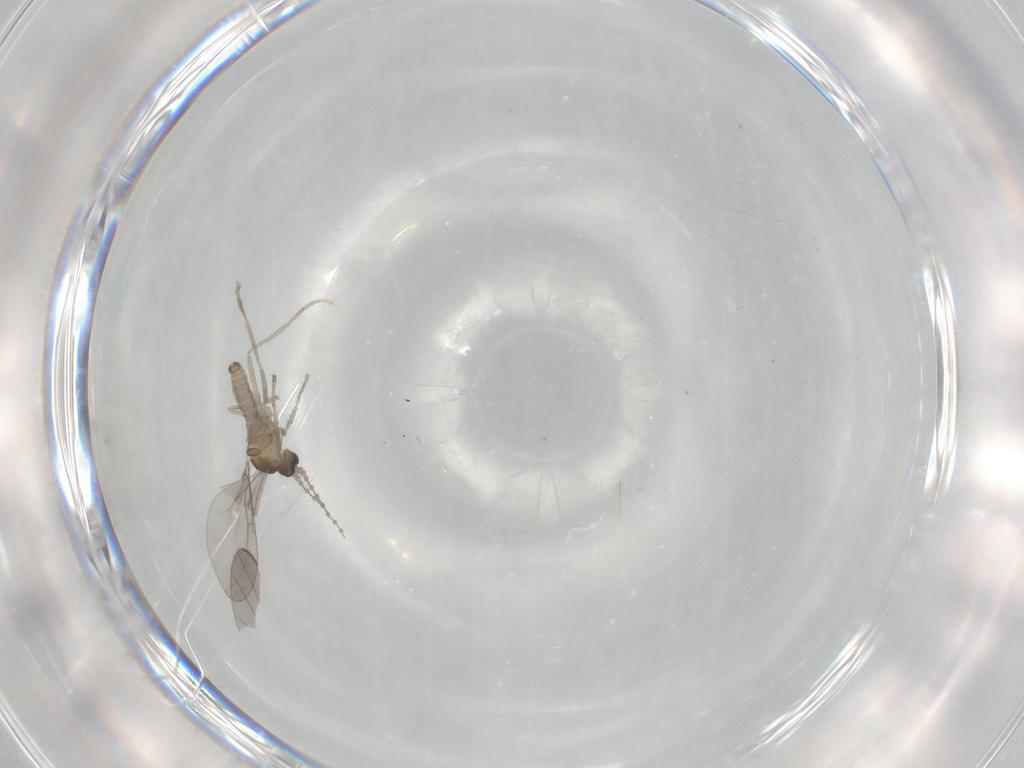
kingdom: Animalia
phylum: Arthropoda
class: Insecta
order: Diptera
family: Cecidomyiidae
